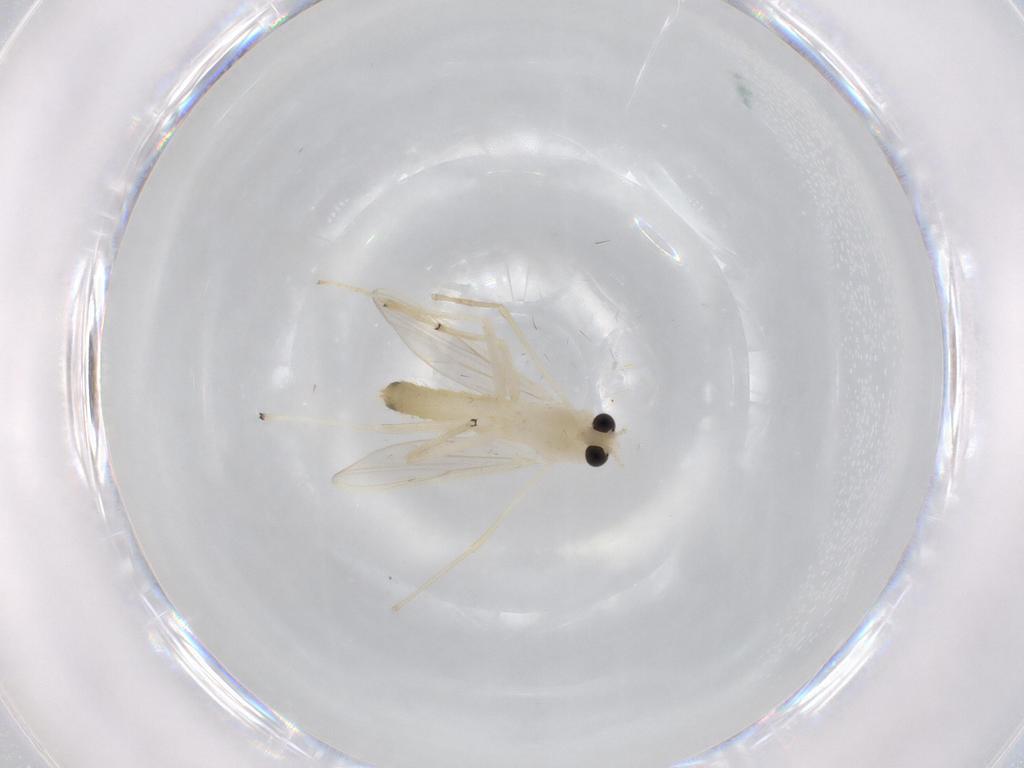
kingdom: Animalia
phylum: Arthropoda
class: Insecta
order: Diptera
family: Chironomidae
